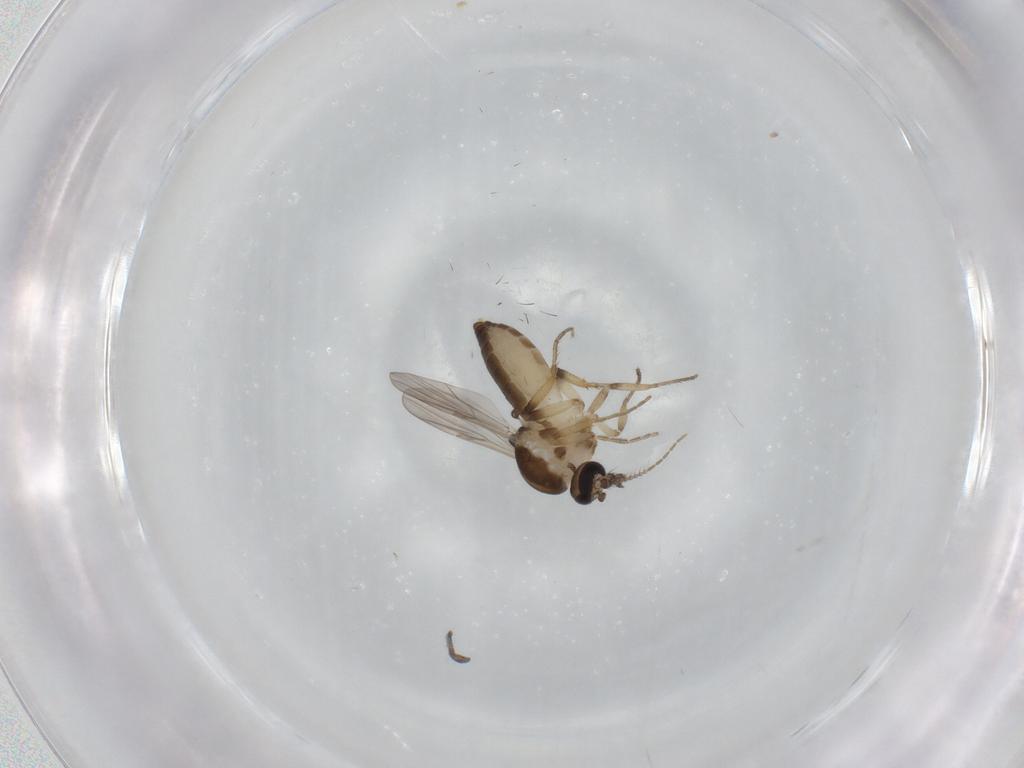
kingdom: Animalia
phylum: Arthropoda
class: Insecta
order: Diptera
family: Ceratopogonidae
